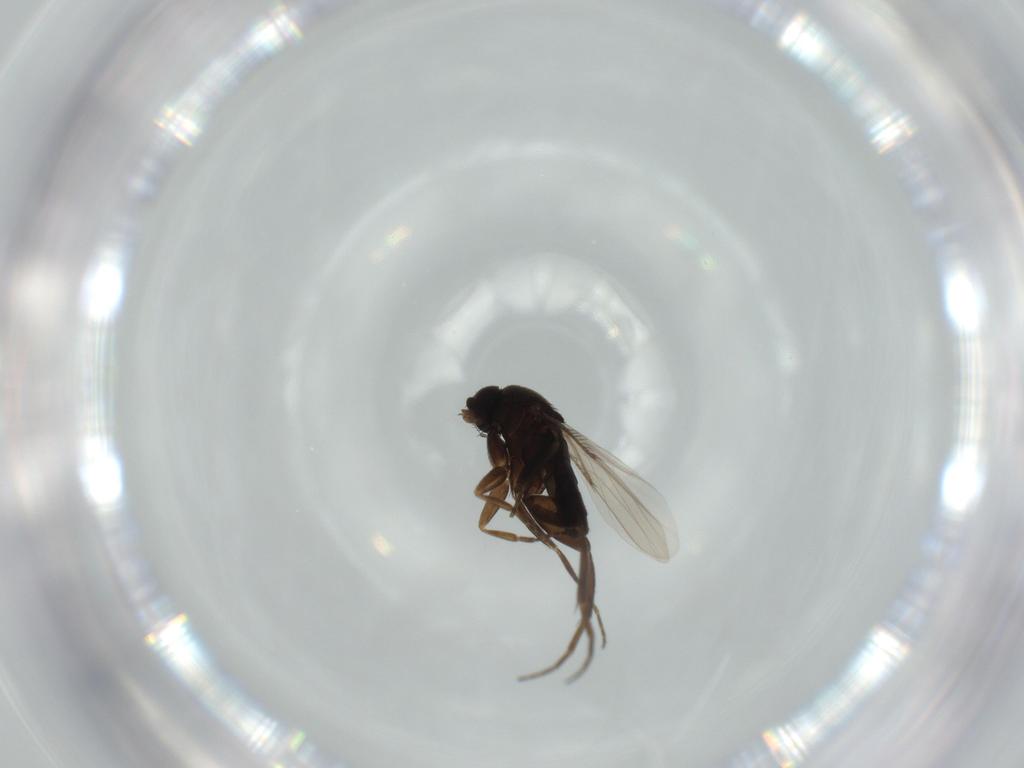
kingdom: Animalia
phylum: Arthropoda
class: Insecta
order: Diptera
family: Phoridae
